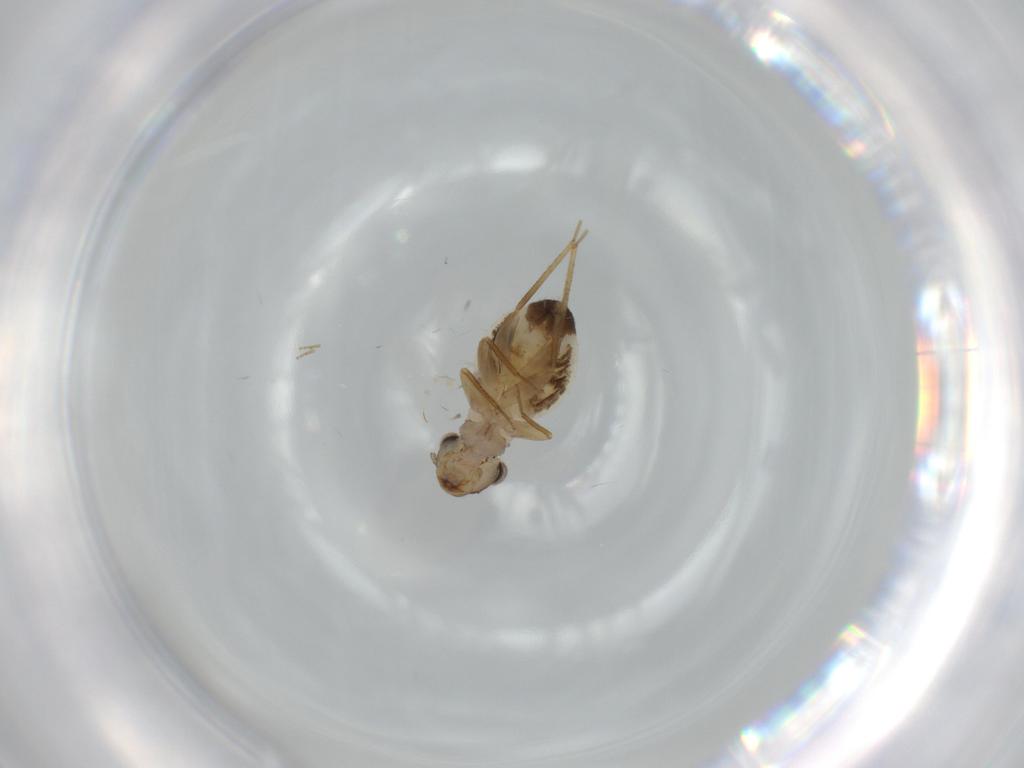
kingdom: Animalia
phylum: Arthropoda
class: Insecta
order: Psocodea
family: Lepidopsocidae
